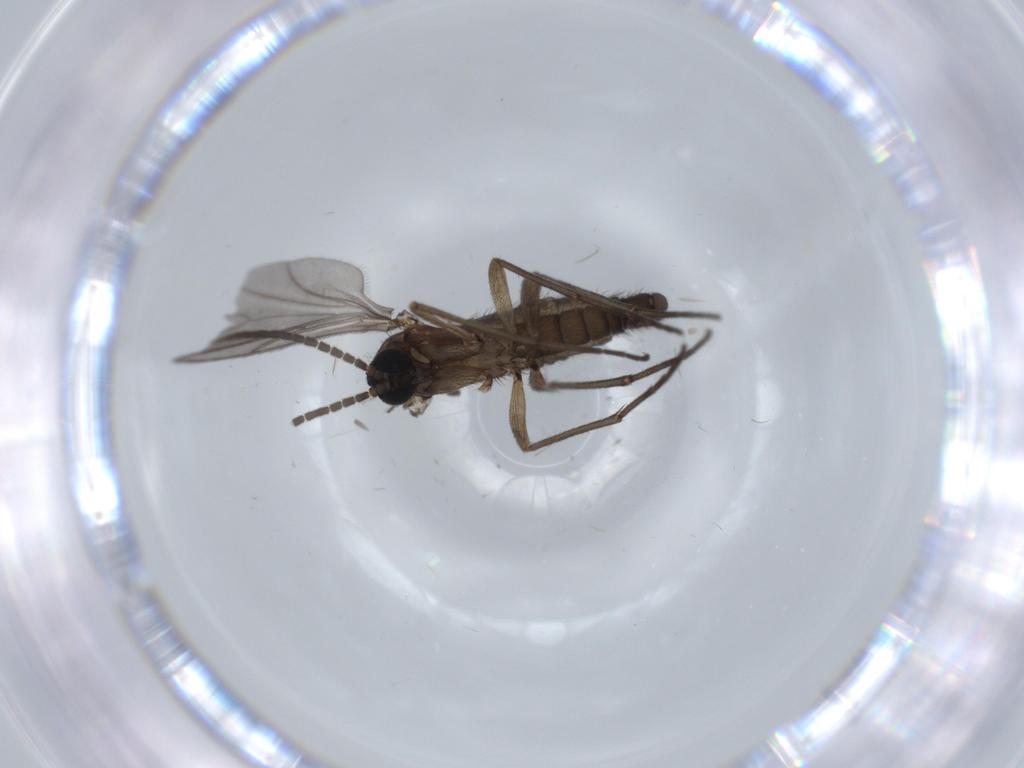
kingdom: Animalia
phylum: Arthropoda
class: Insecta
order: Diptera
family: Sciaridae
